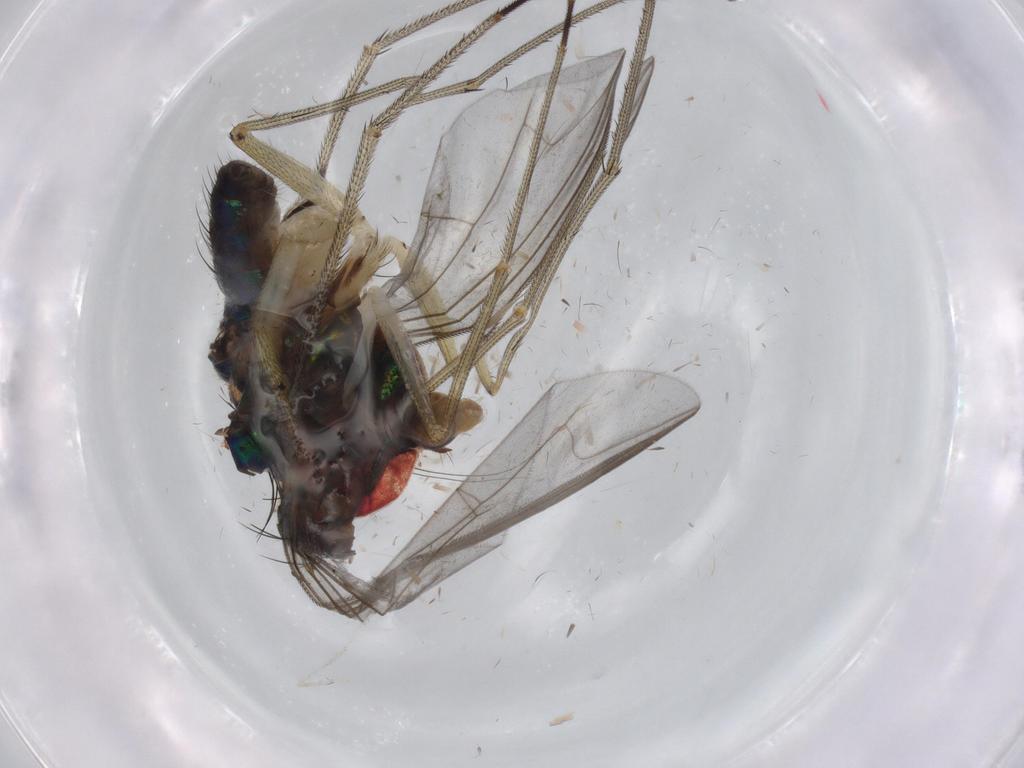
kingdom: Animalia
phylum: Arthropoda
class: Insecta
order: Diptera
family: Dolichopodidae
